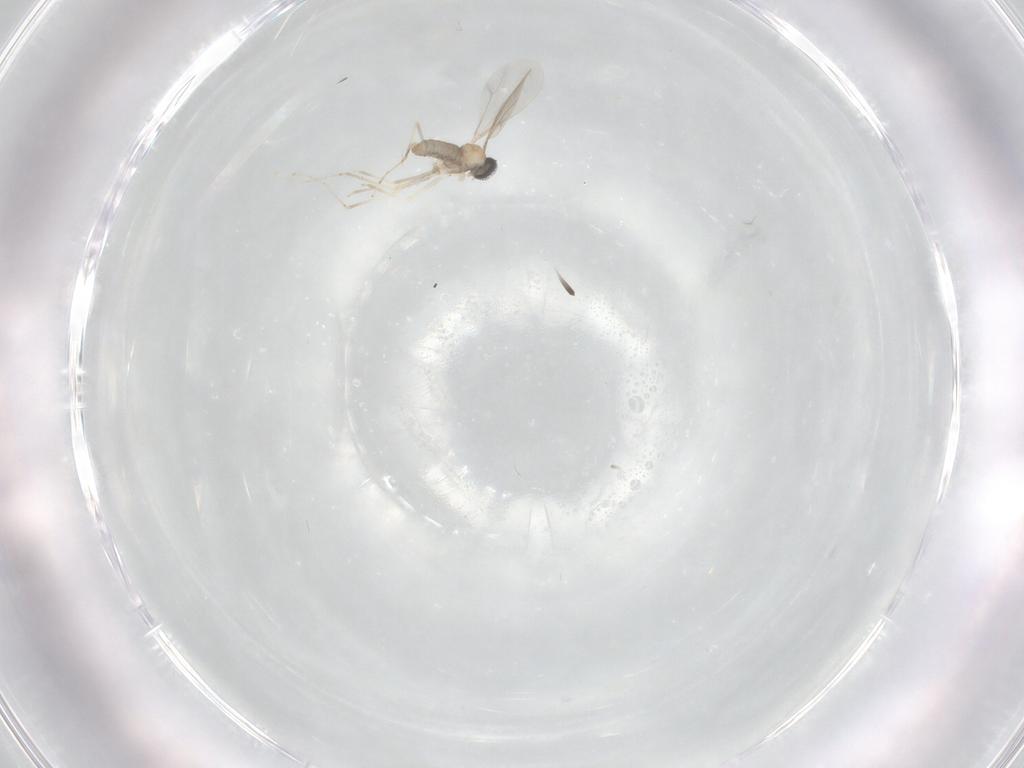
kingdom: Animalia
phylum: Arthropoda
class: Insecta
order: Diptera
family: Cecidomyiidae
